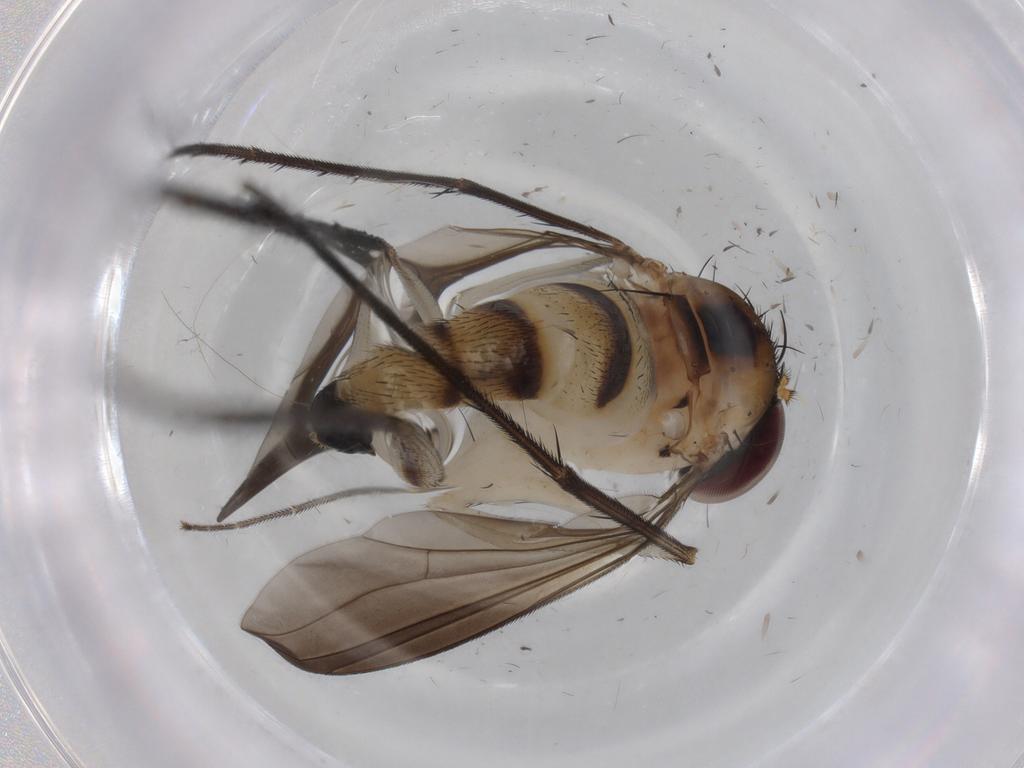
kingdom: Animalia
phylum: Arthropoda
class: Insecta
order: Diptera
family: Dolichopodidae
